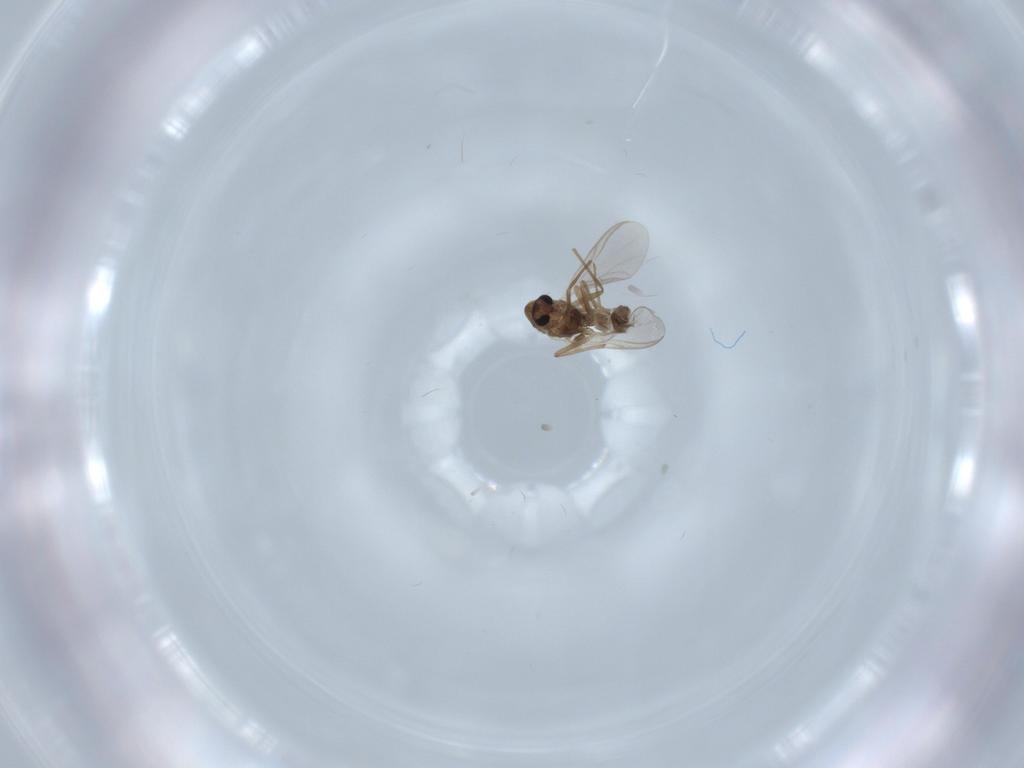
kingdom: Animalia
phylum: Arthropoda
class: Insecta
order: Diptera
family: Chironomidae
